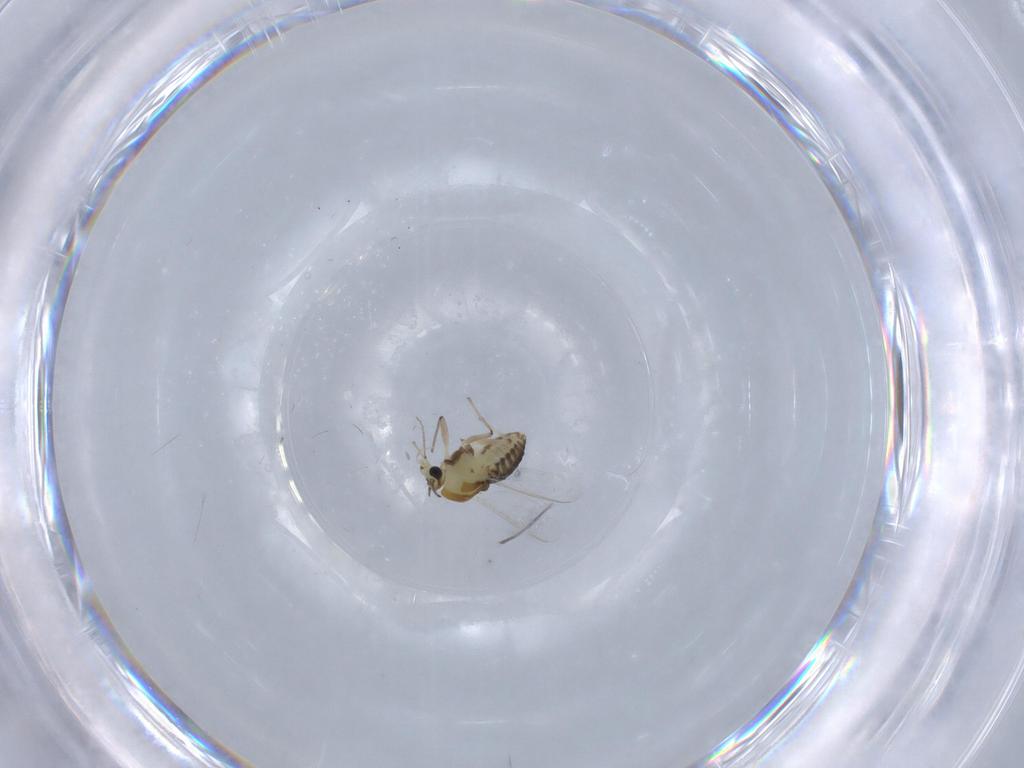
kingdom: Animalia
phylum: Arthropoda
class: Insecta
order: Diptera
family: Chironomidae
